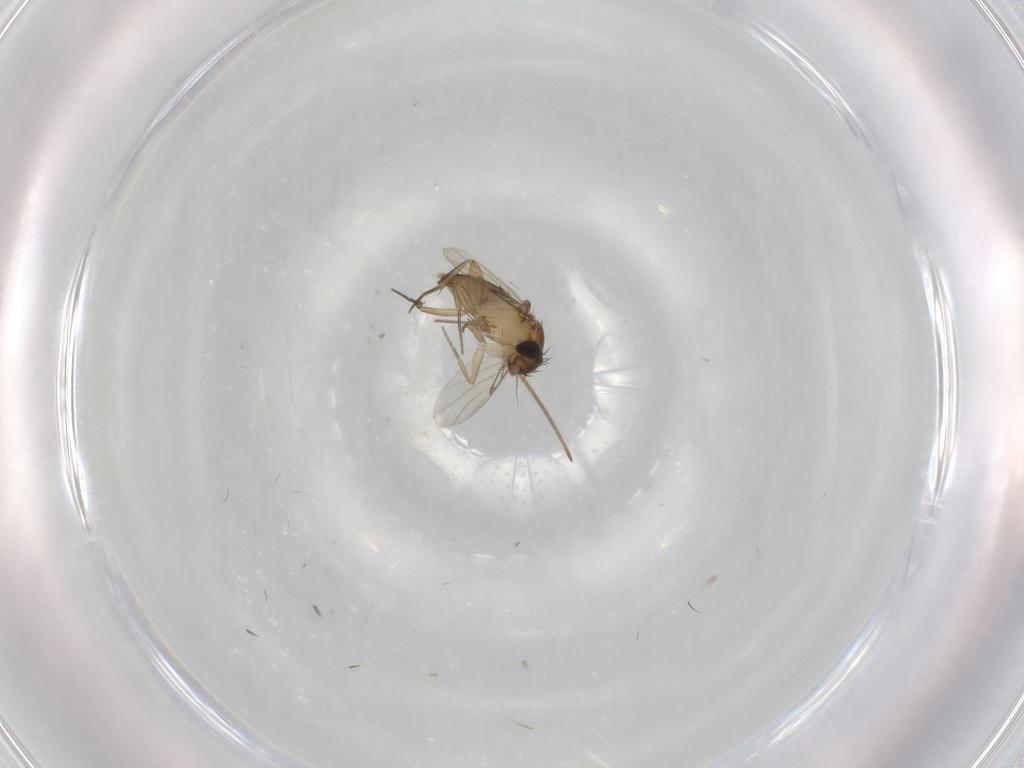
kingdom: Animalia
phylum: Arthropoda
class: Insecta
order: Diptera
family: Phoridae
